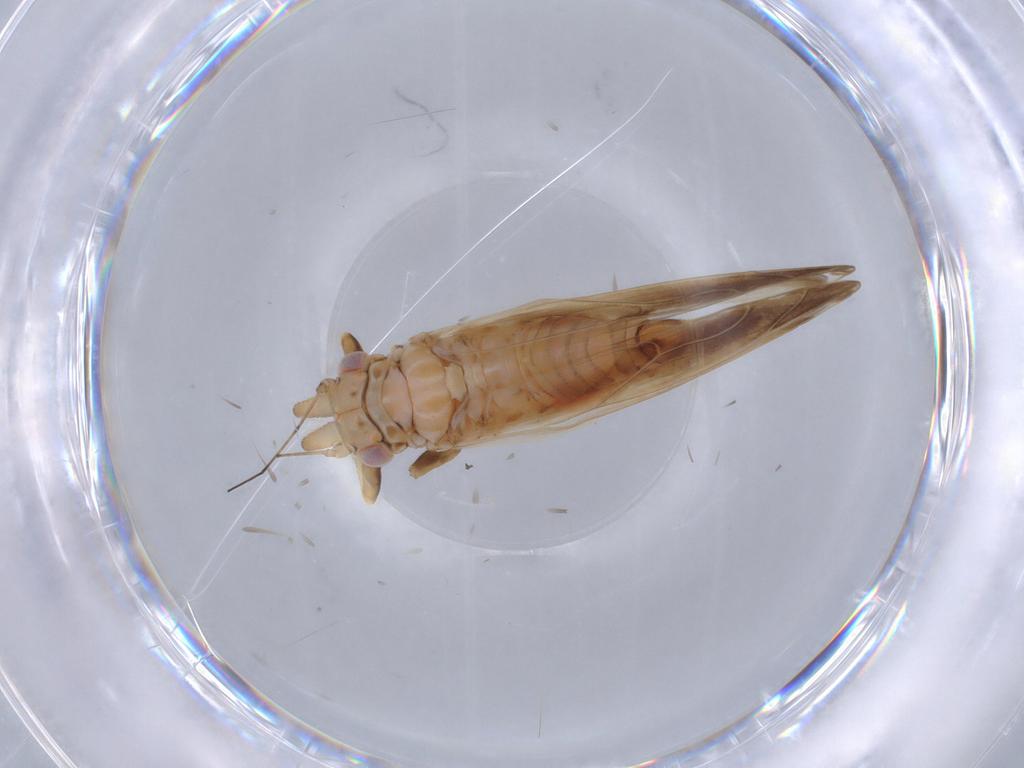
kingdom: Animalia
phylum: Arthropoda
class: Insecta
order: Hemiptera
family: Psyllidae
